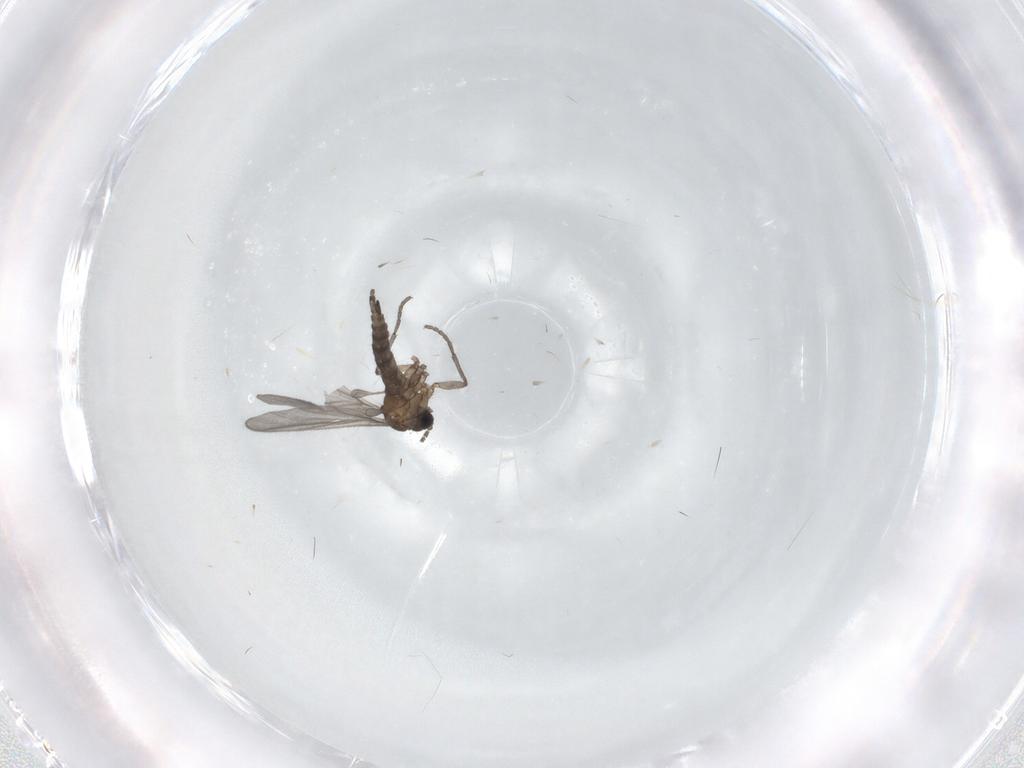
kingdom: Animalia
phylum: Arthropoda
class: Insecta
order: Diptera
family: Sciaridae
